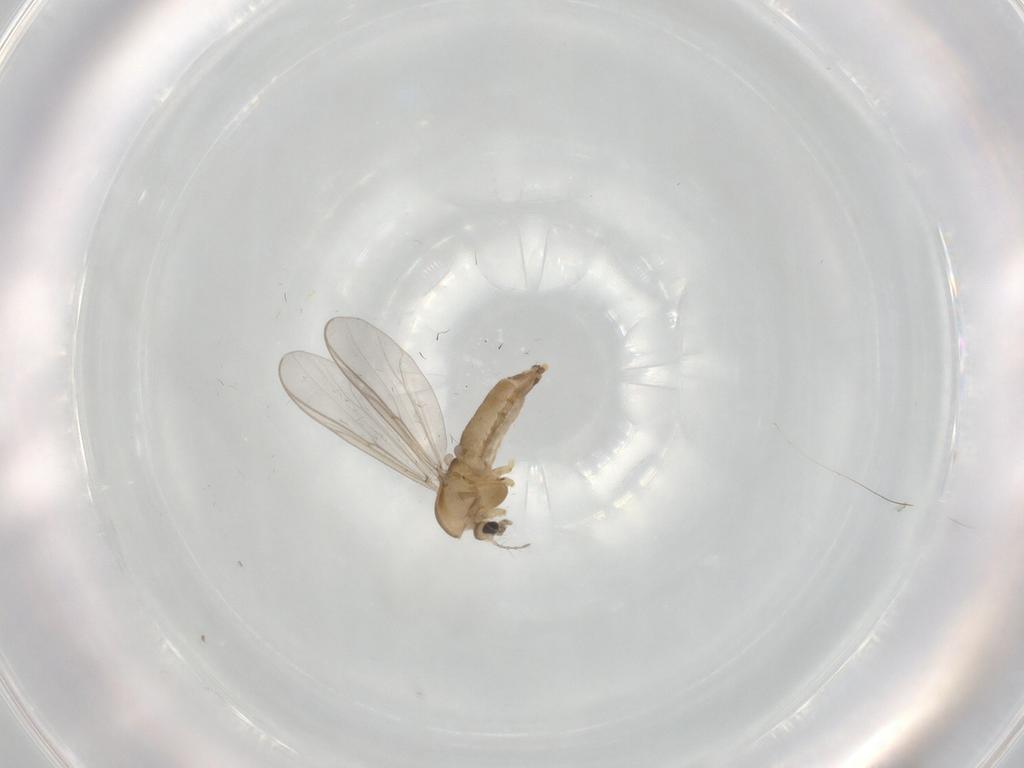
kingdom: Animalia
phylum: Arthropoda
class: Insecta
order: Diptera
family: Chironomidae
